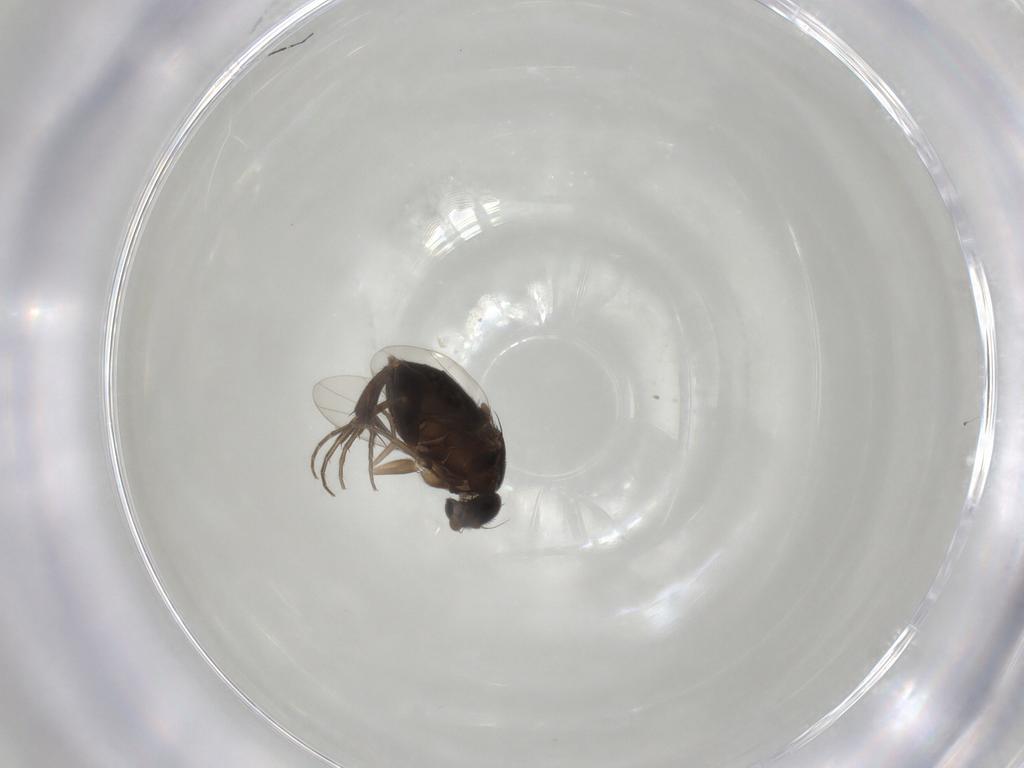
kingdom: Animalia
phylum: Arthropoda
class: Insecta
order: Diptera
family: Phoridae
